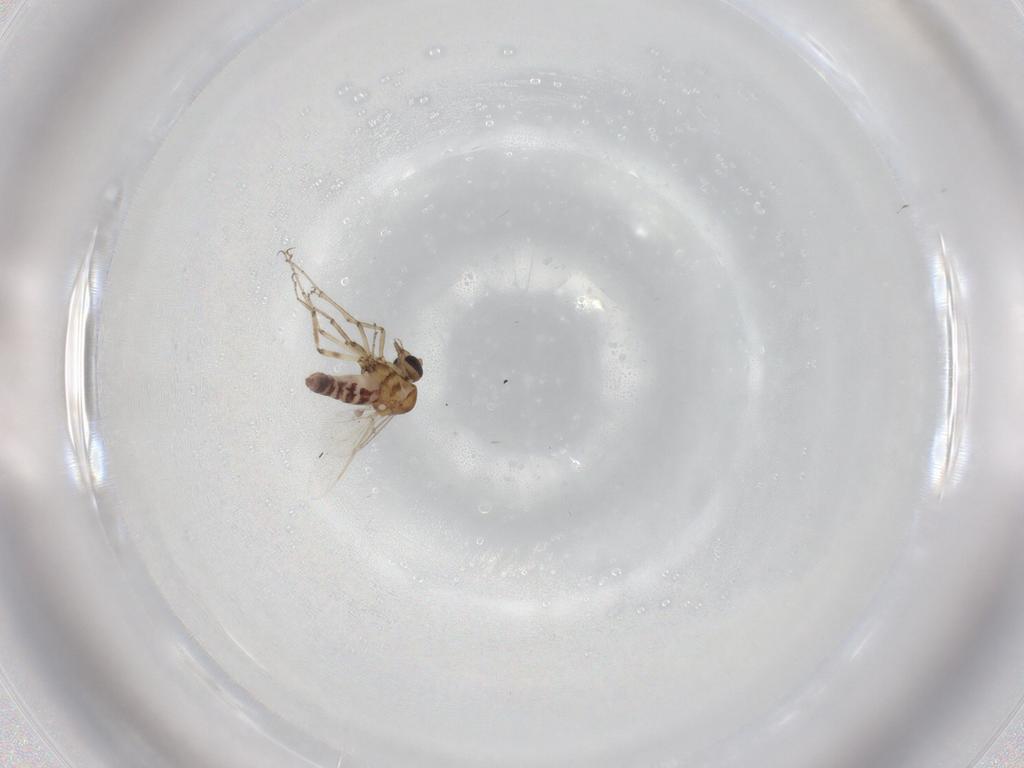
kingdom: Animalia
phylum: Arthropoda
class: Insecta
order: Diptera
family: Ceratopogonidae
